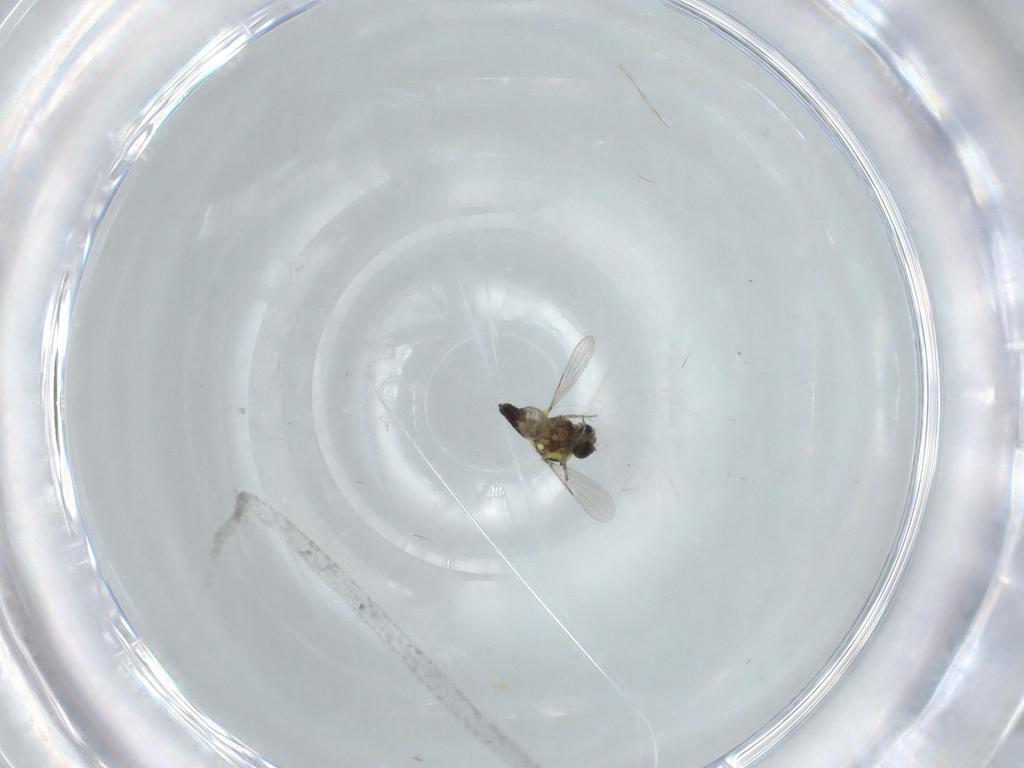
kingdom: Animalia
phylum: Arthropoda
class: Insecta
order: Diptera
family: Ceratopogonidae
